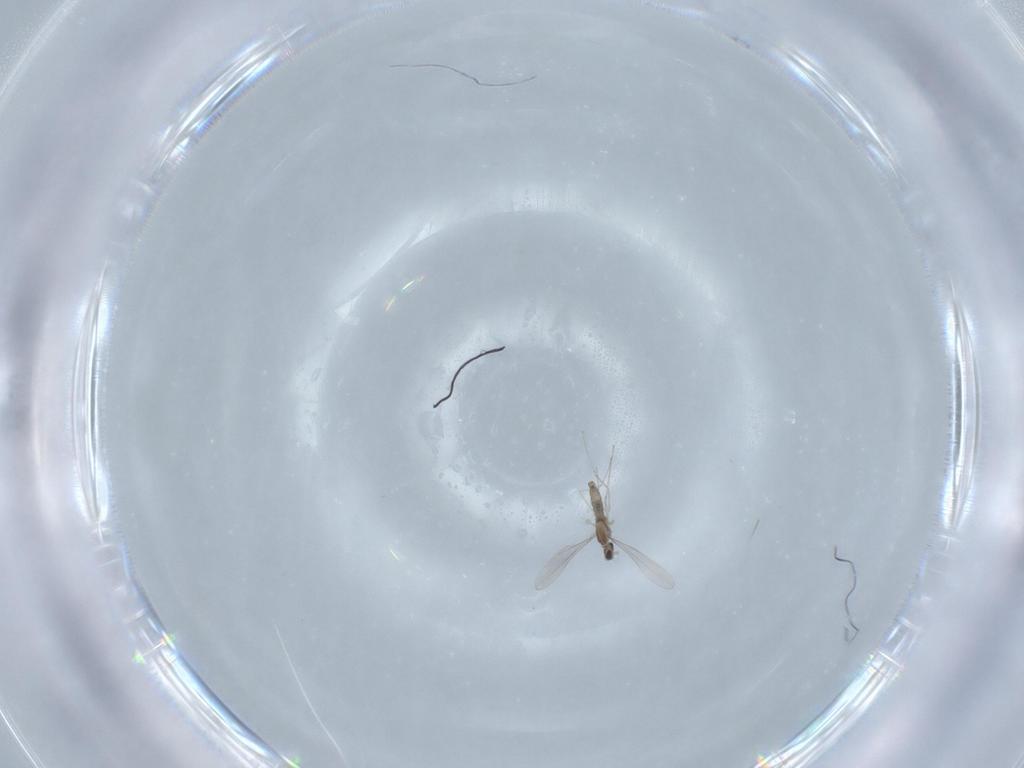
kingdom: Animalia
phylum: Arthropoda
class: Insecta
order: Diptera
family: Cecidomyiidae
